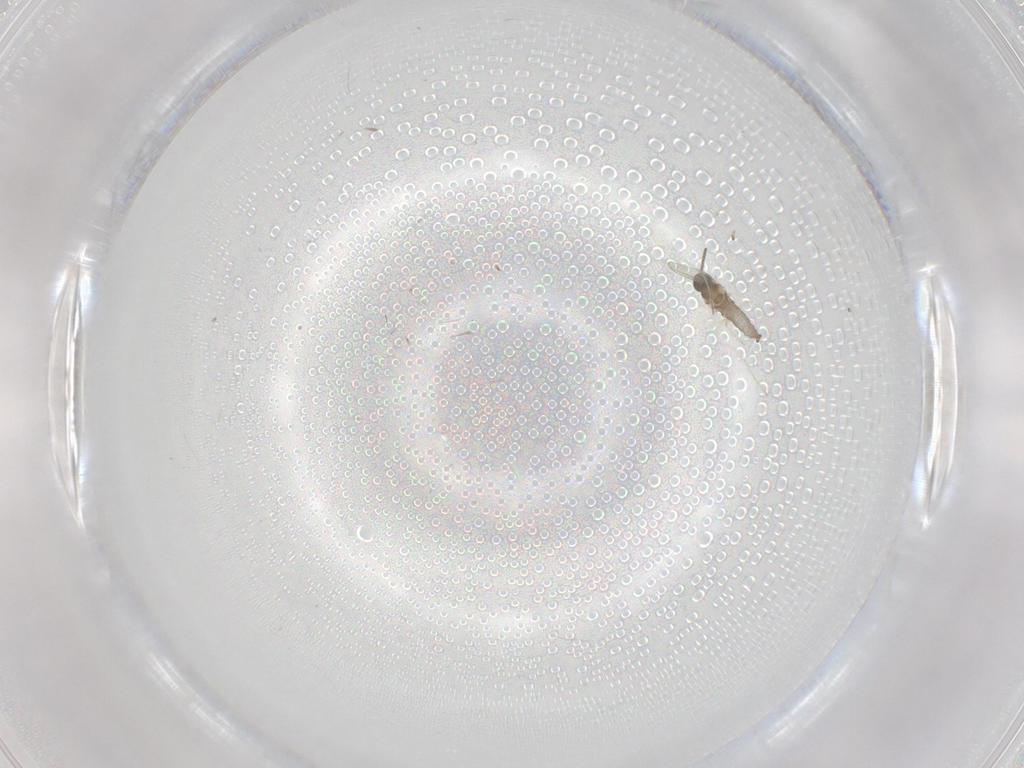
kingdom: Animalia
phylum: Arthropoda
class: Insecta
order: Diptera
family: Cecidomyiidae
